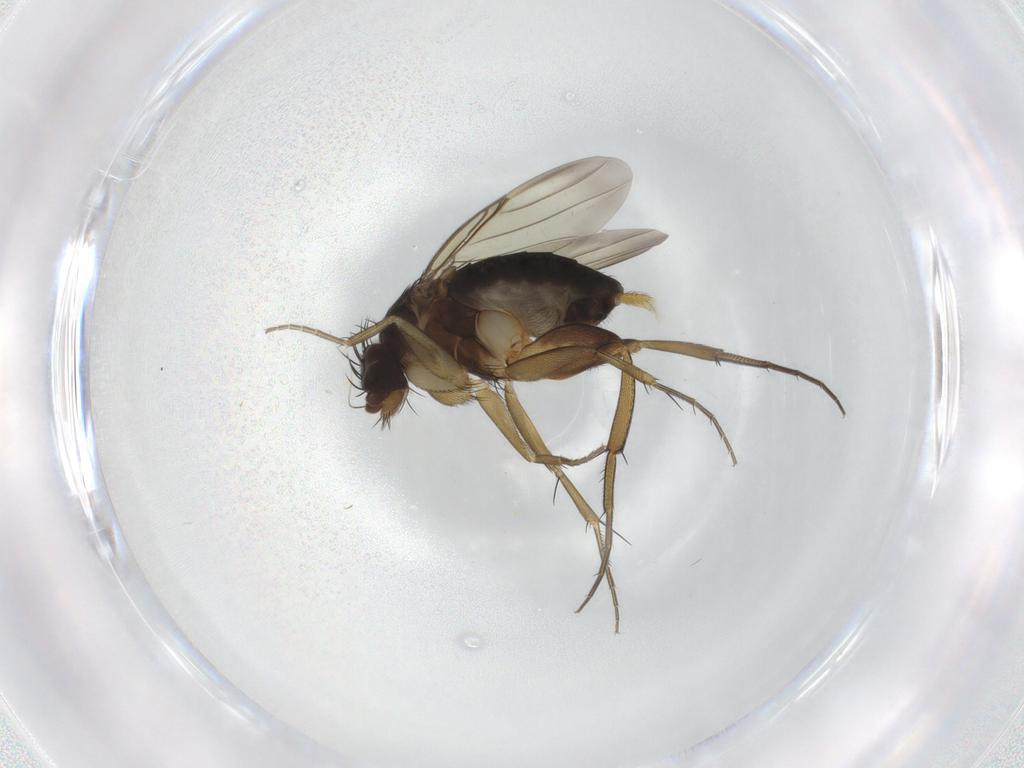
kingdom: Animalia
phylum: Arthropoda
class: Insecta
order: Diptera
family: Phoridae
